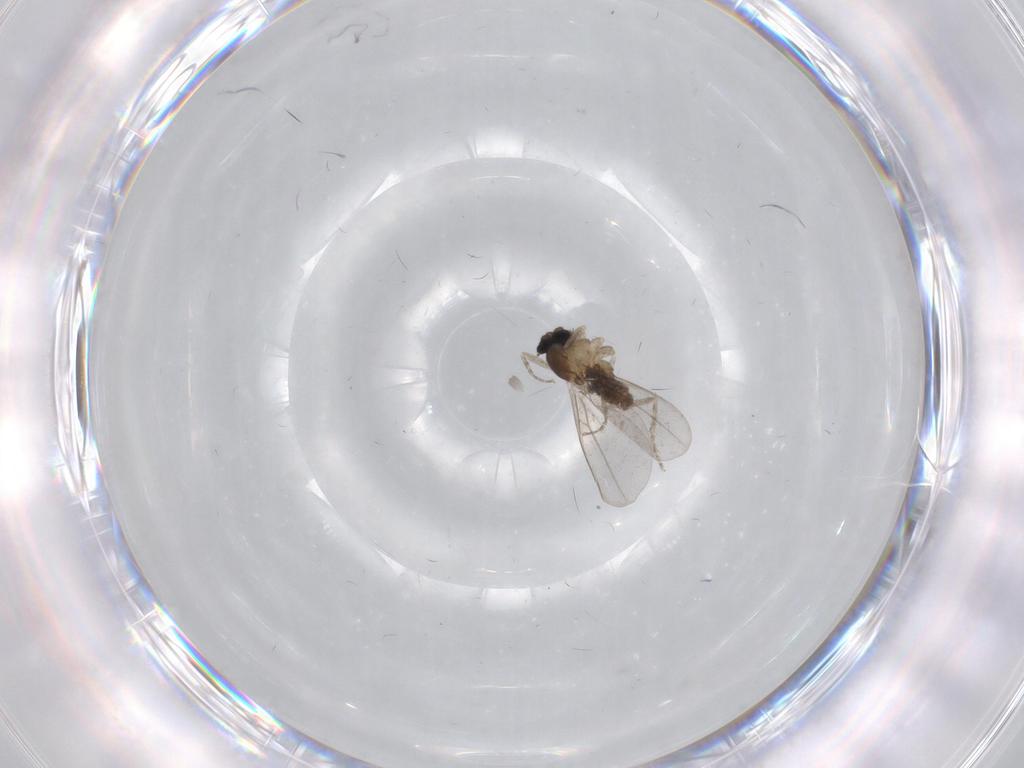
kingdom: Animalia
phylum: Arthropoda
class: Insecta
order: Diptera
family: Cecidomyiidae
